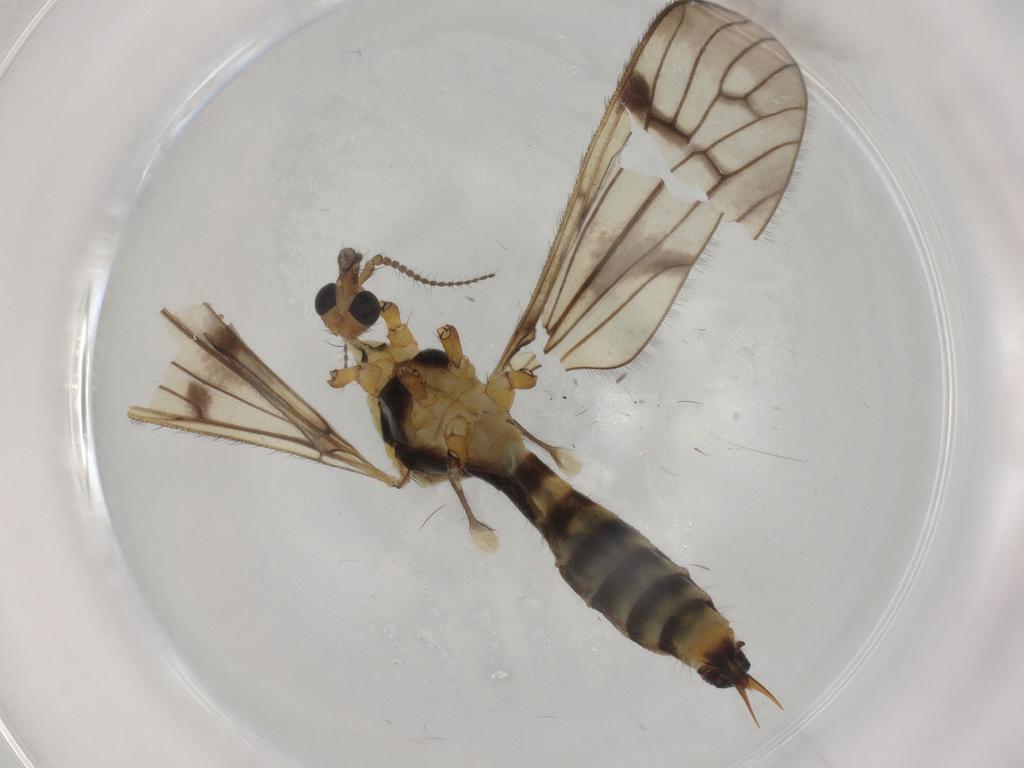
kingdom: Animalia
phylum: Arthropoda
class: Insecta
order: Diptera
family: Limoniidae
